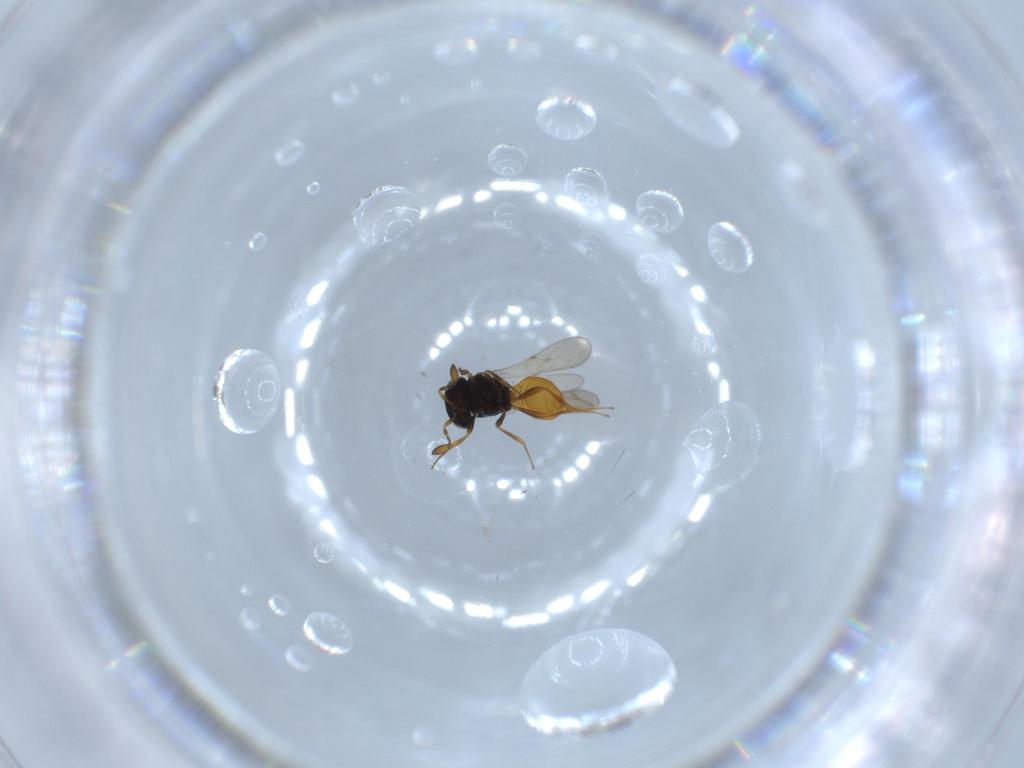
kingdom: Animalia
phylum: Arthropoda
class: Insecta
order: Hymenoptera
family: Scelionidae
